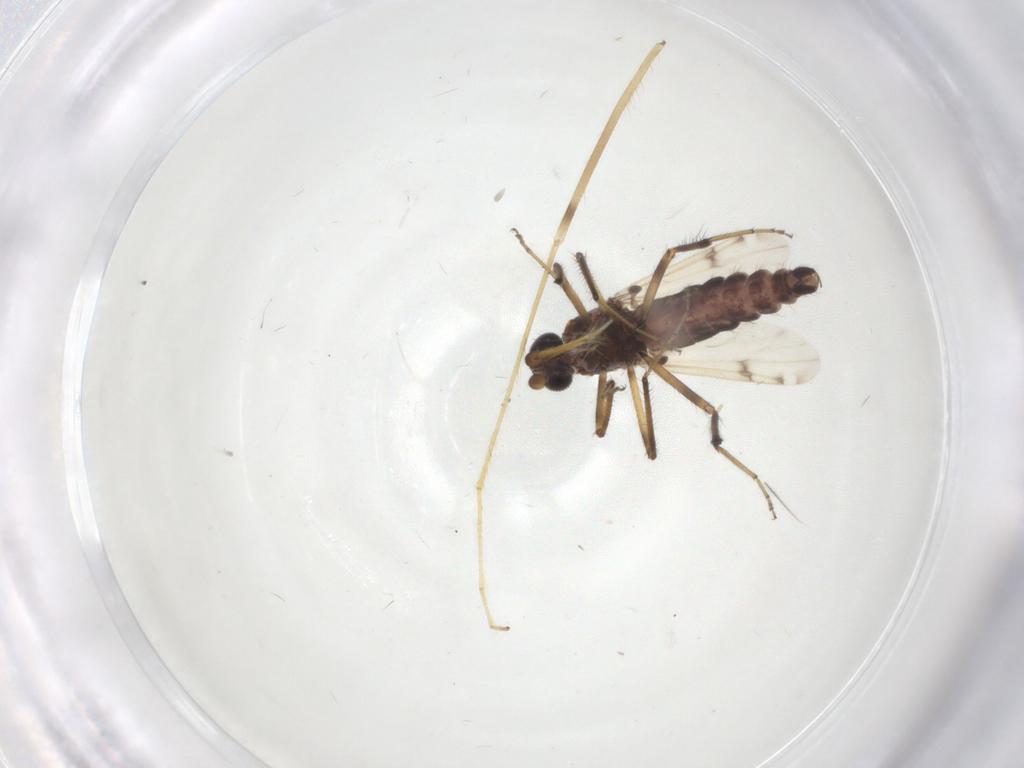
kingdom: Animalia
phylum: Arthropoda
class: Insecta
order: Diptera
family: Ceratopogonidae
